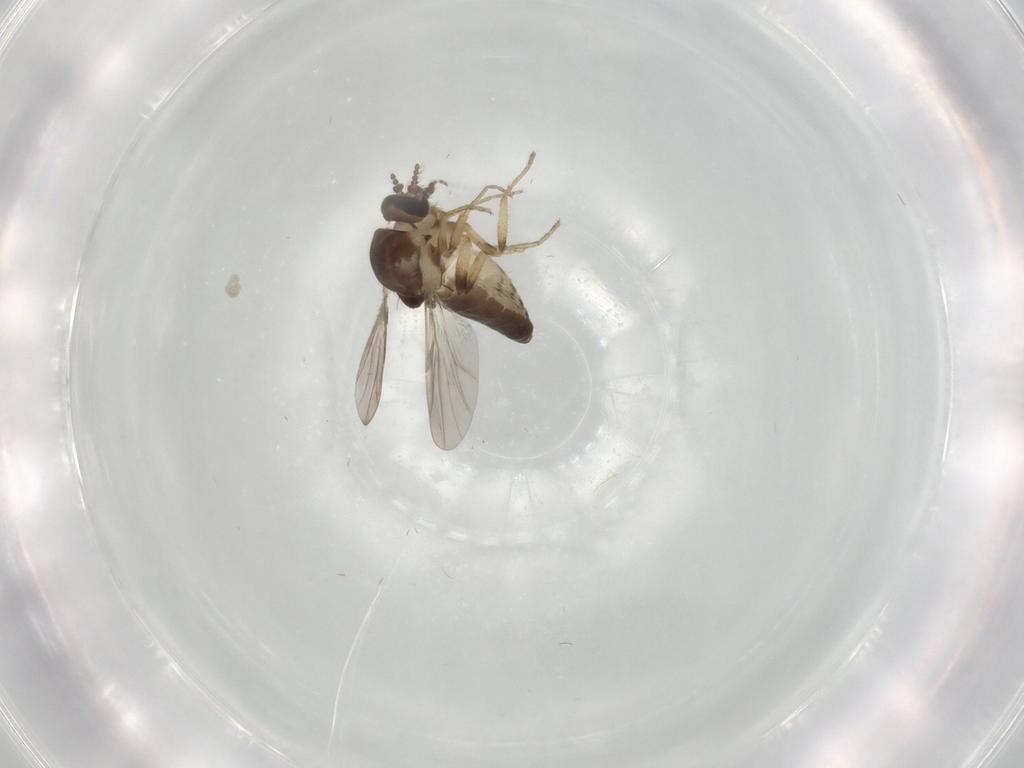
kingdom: Animalia
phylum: Arthropoda
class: Insecta
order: Diptera
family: Ceratopogonidae
